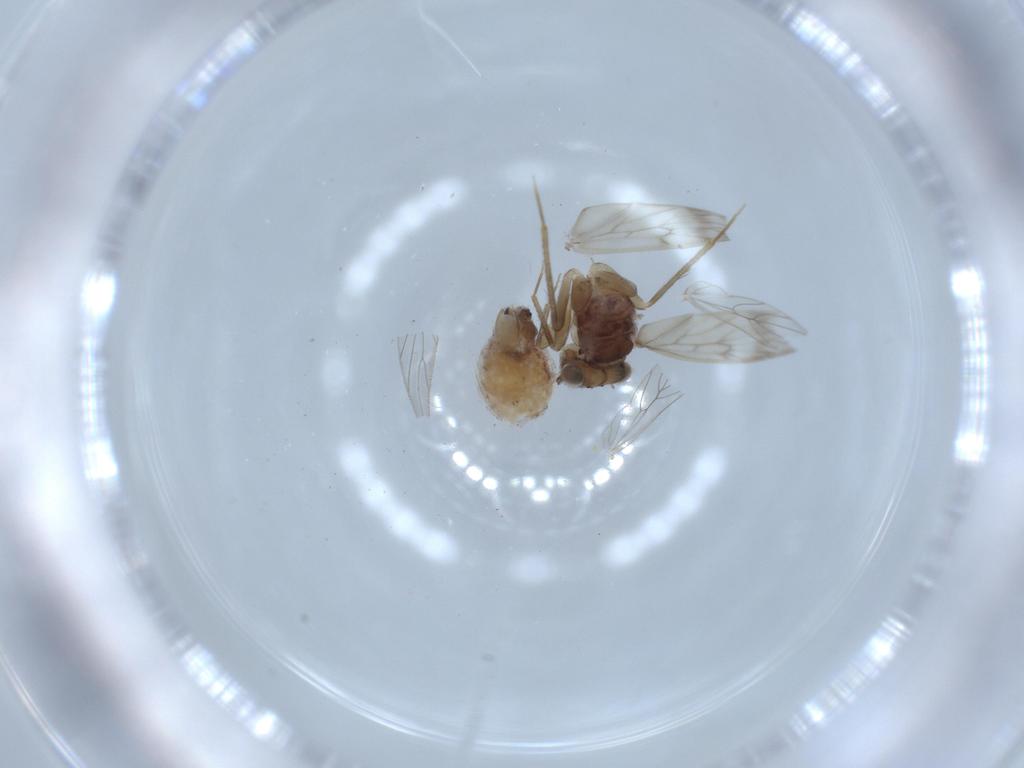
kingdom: Animalia
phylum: Arthropoda
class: Insecta
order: Psocodea
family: Lepidopsocidae
